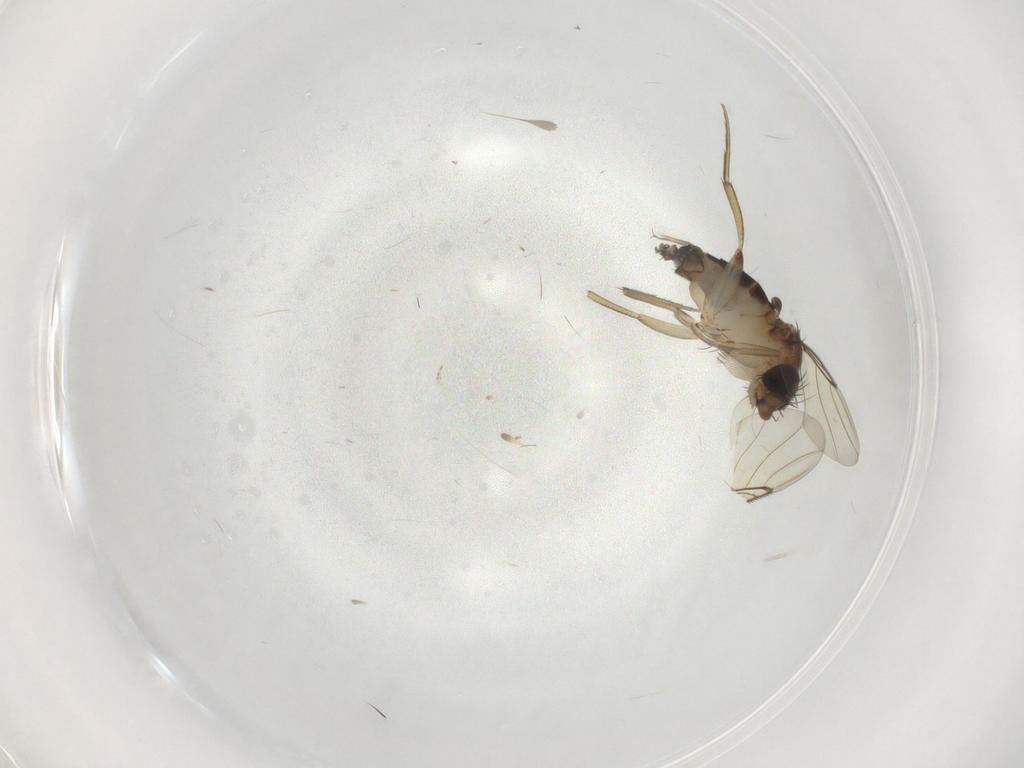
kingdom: Animalia
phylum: Arthropoda
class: Insecta
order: Diptera
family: Phoridae
